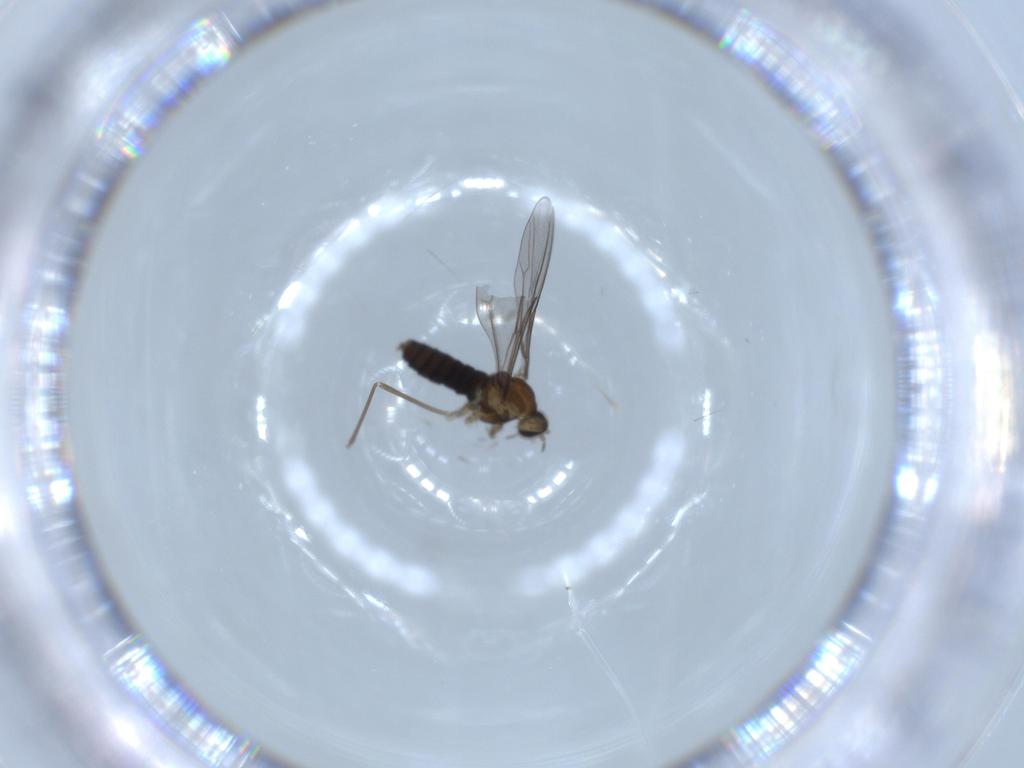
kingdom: Animalia
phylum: Arthropoda
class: Insecta
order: Diptera
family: Cecidomyiidae
